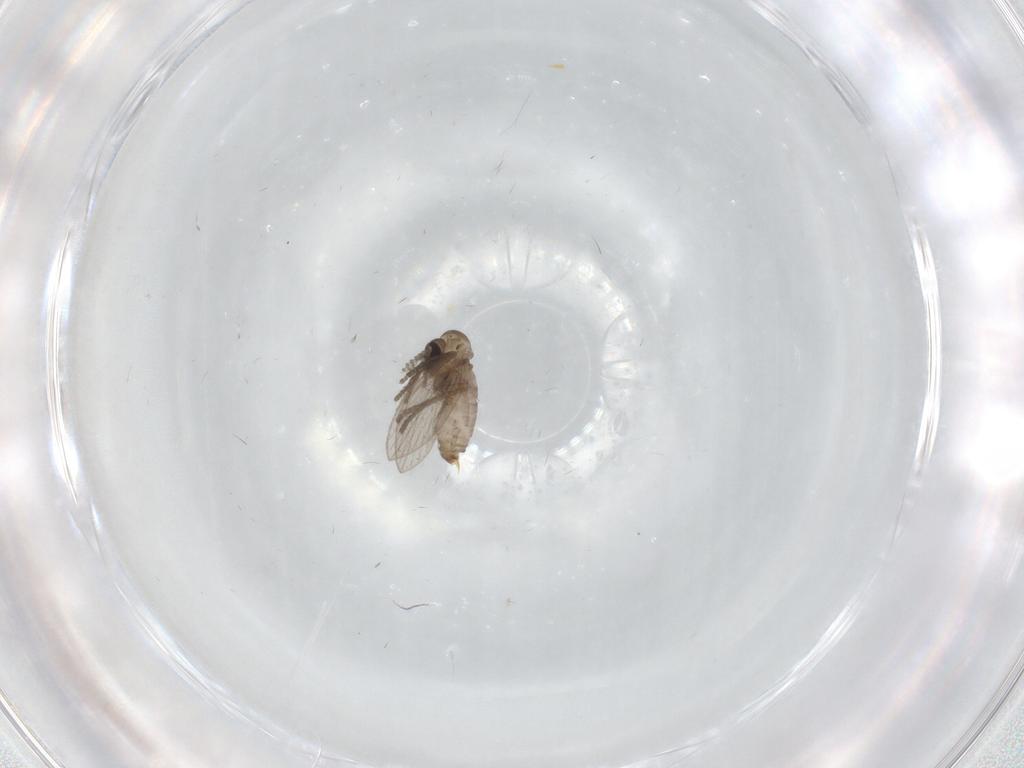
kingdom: Animalia
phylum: Arthropoda
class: Insecta
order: Diptera
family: Psychodidae
